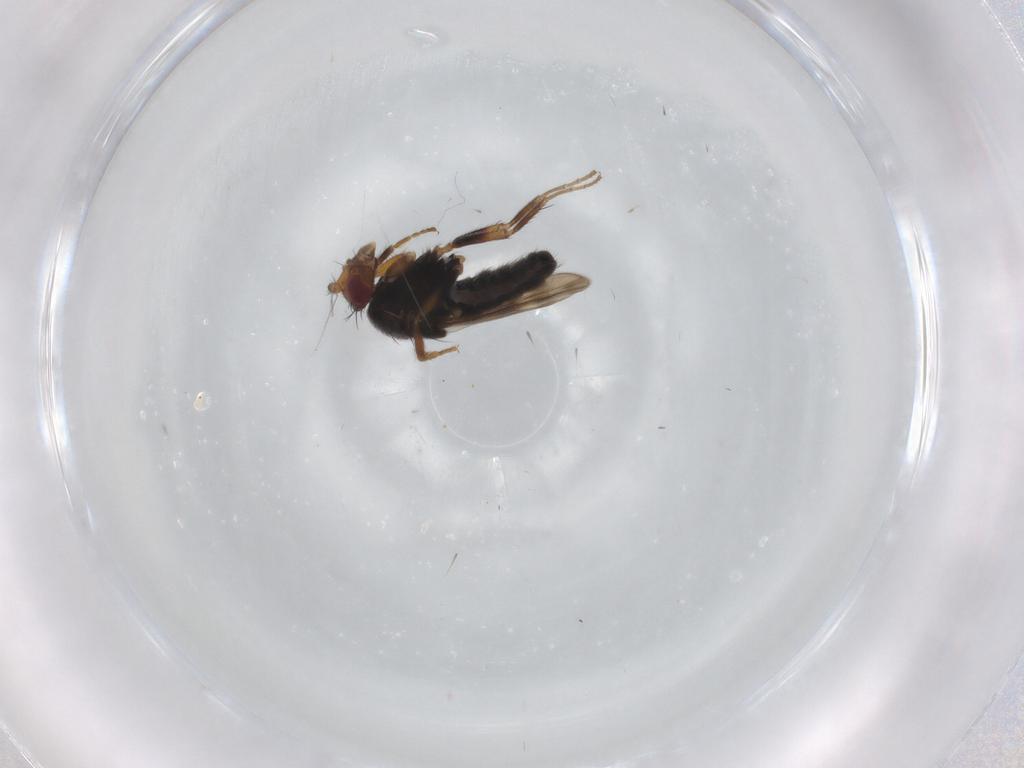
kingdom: Animalia
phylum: Arthropoda
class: Insecta
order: Diptera
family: Sphaeroceridae
